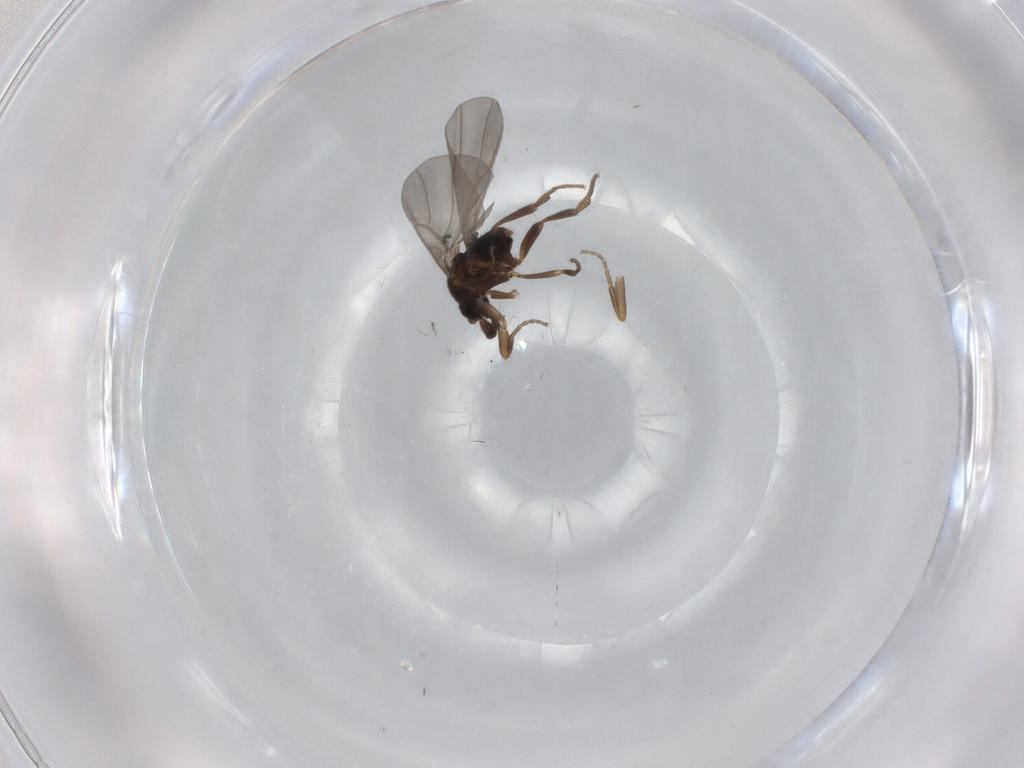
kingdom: Animalia
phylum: Arthropoda
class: Insecta
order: Diptera
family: Phoridae
